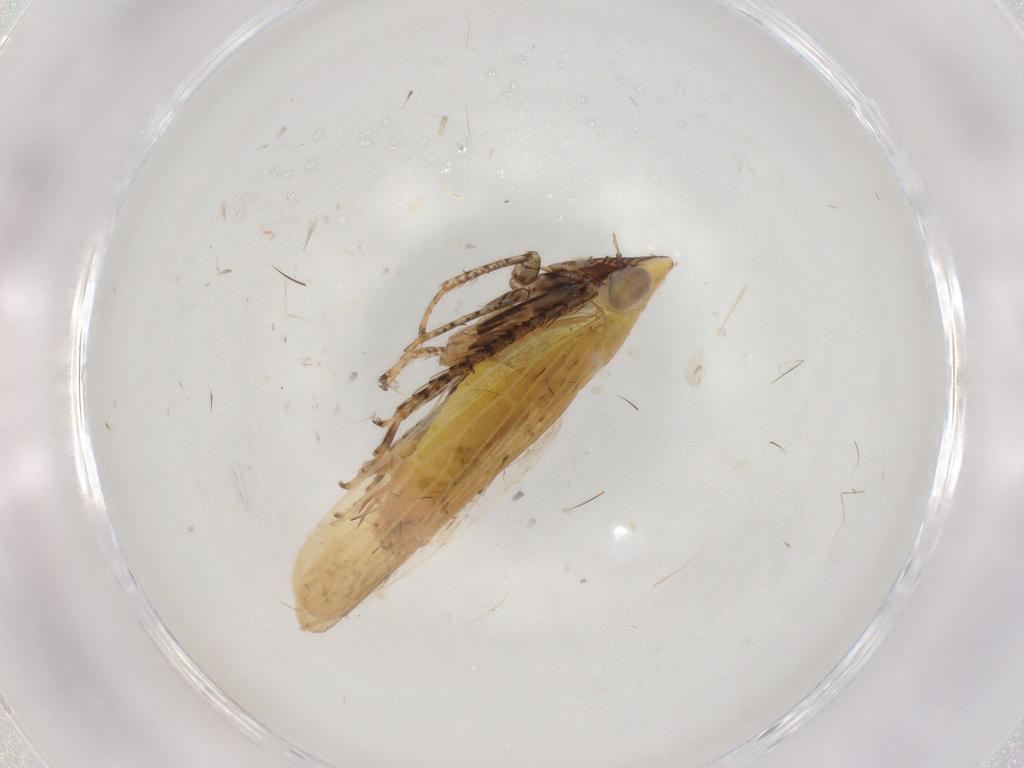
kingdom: Animalia
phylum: Arthropoda
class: Insecta
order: Hemiptera
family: Cicadellidae
